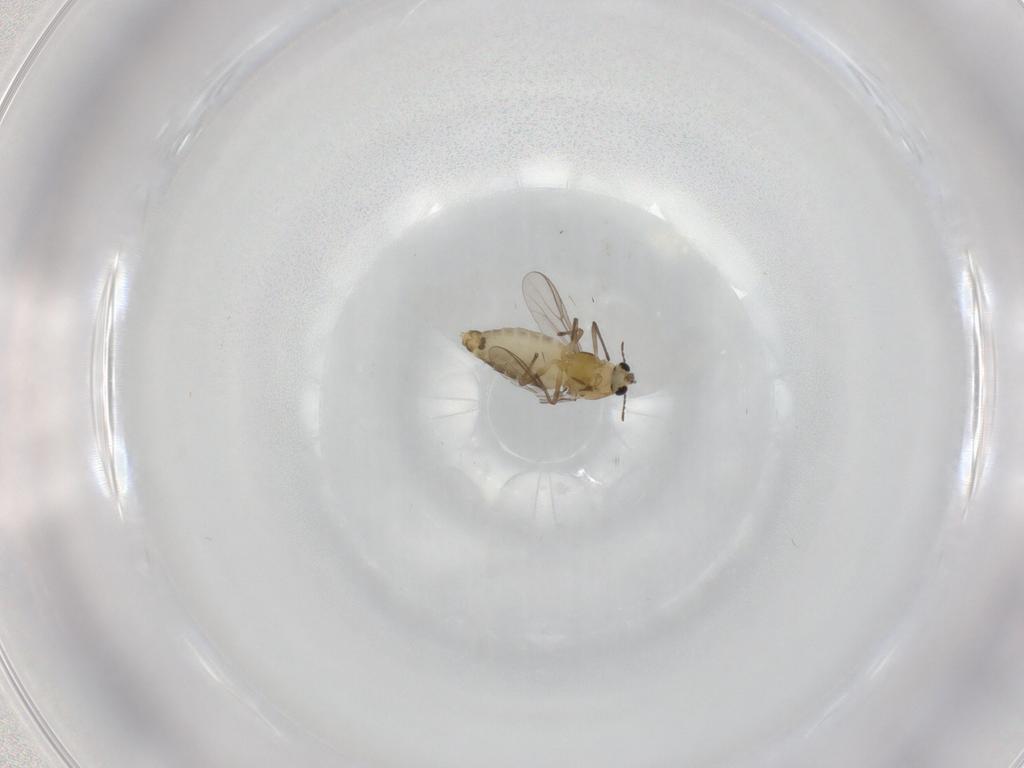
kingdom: Animalia
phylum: Arthropoda
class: Insecta
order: Diptera
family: Chironomidae
